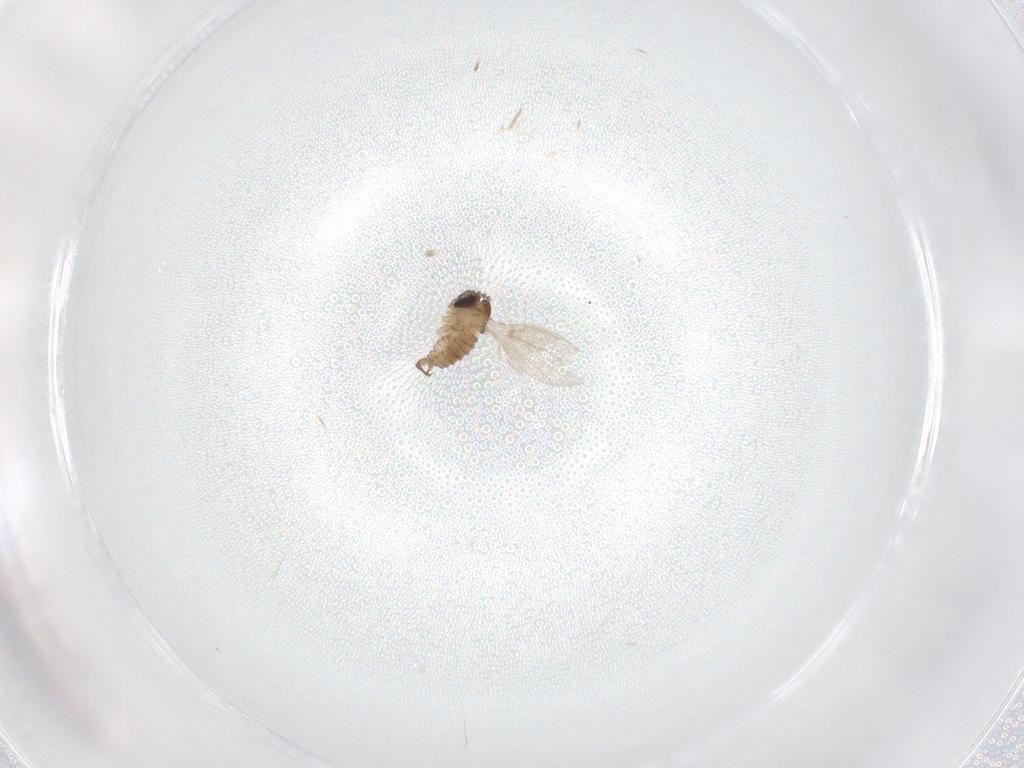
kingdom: Animalia
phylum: Arthropoda
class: Insecta
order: Diptera
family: Psychodidae
